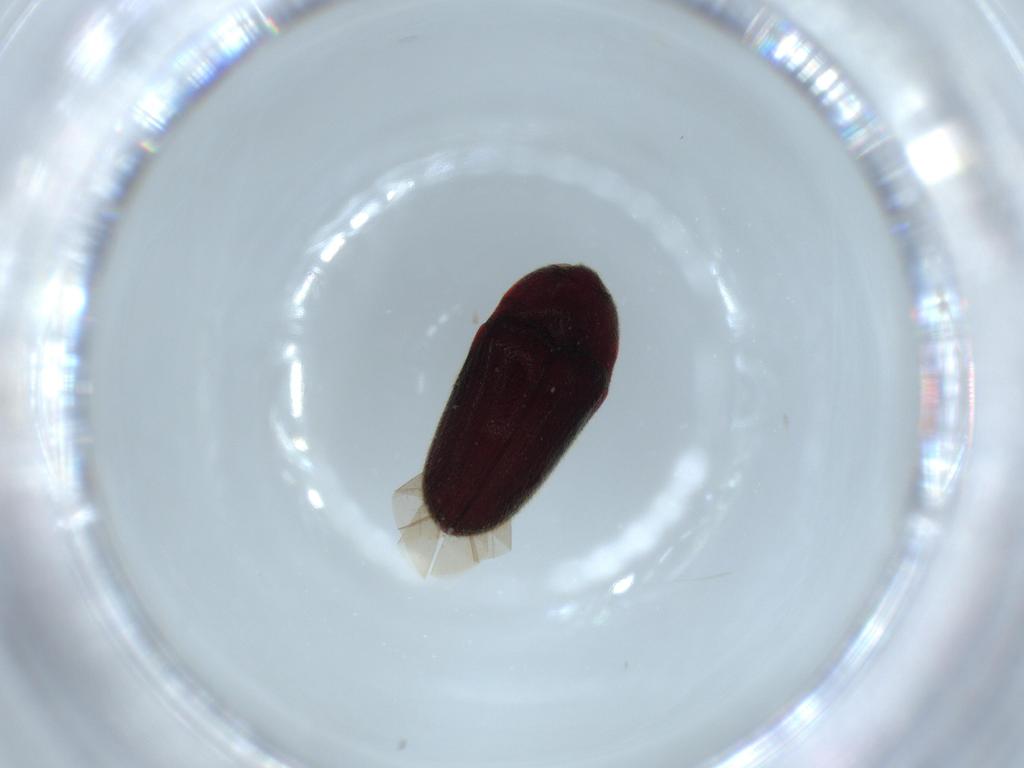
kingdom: Animalia
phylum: Arthropoda
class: Insecta
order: Coleoptera
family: Throscidae
